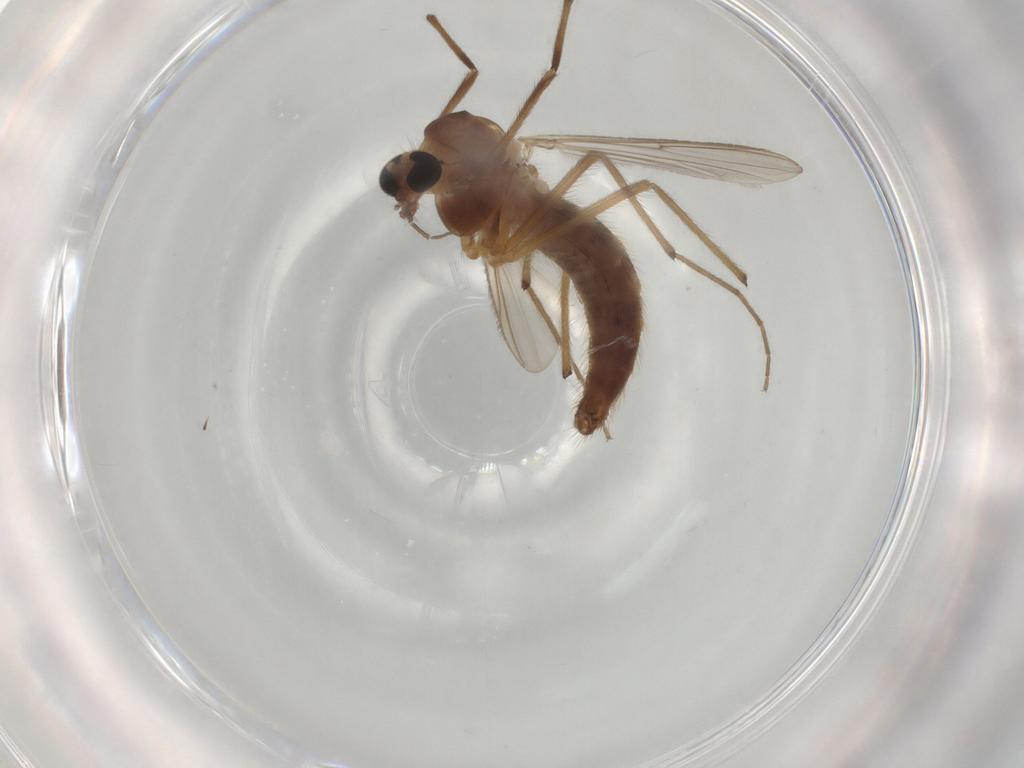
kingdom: Animalia
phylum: Arthropoda
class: Insecta
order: Diptera
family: Chironomidae
